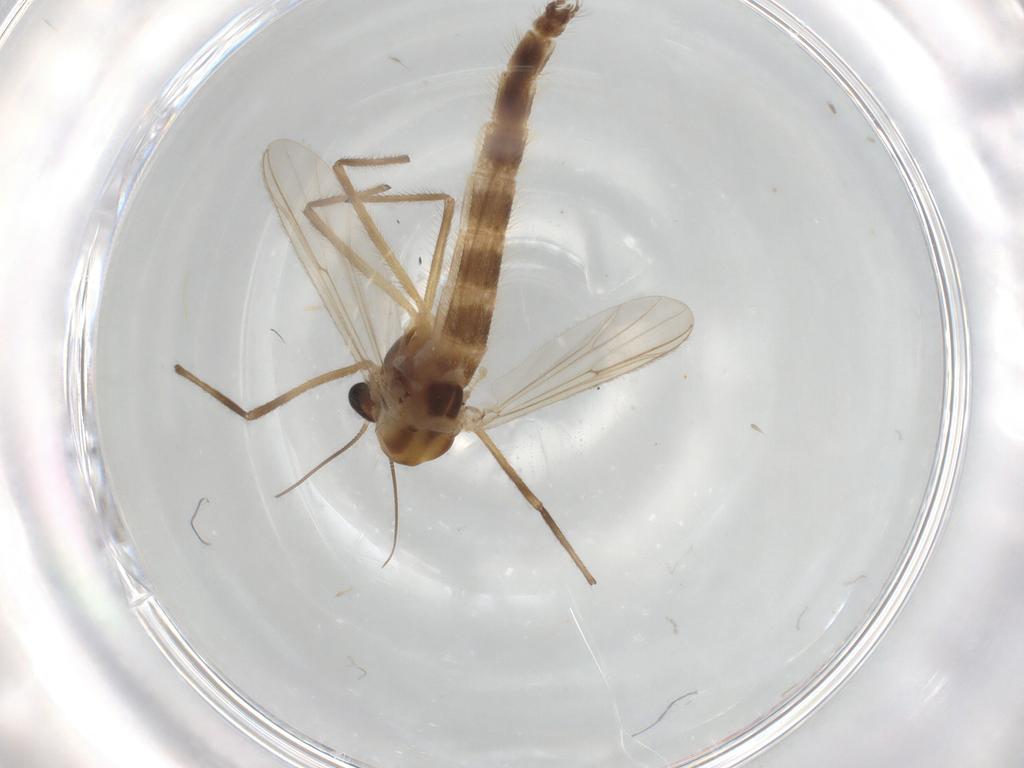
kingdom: Animalia
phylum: Arthropoda
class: Insecta
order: Diptera
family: Chironomidae
